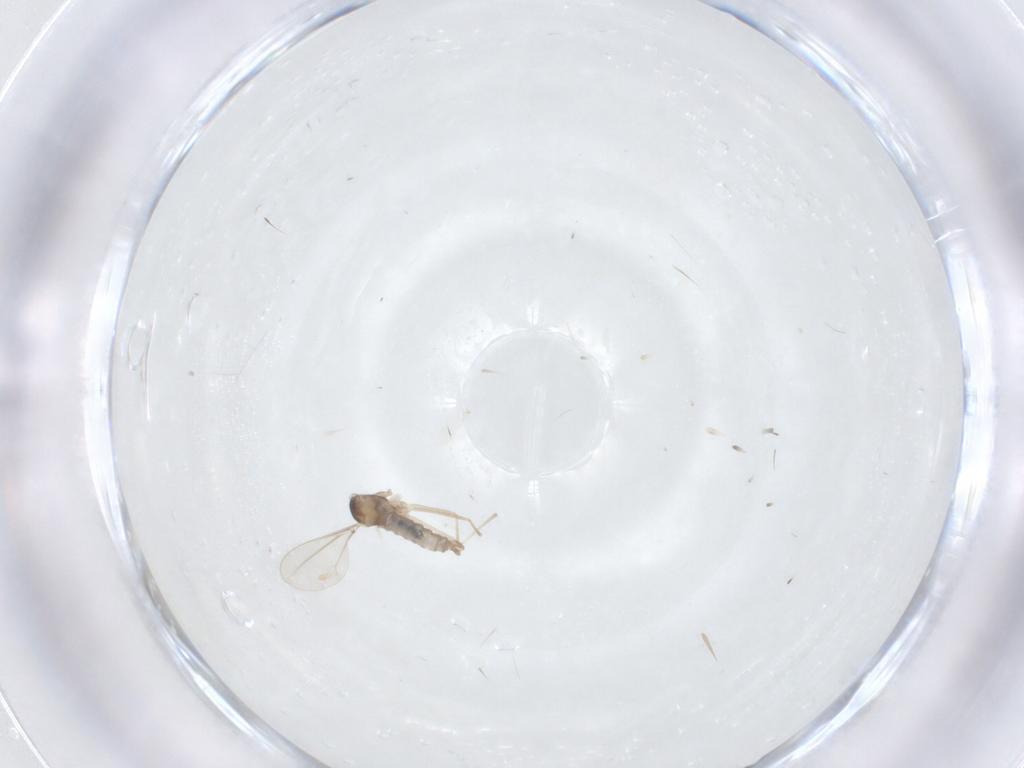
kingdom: Animalia
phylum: Arthropoda
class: Insecta
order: Diptera
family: Cecidomyiidae
